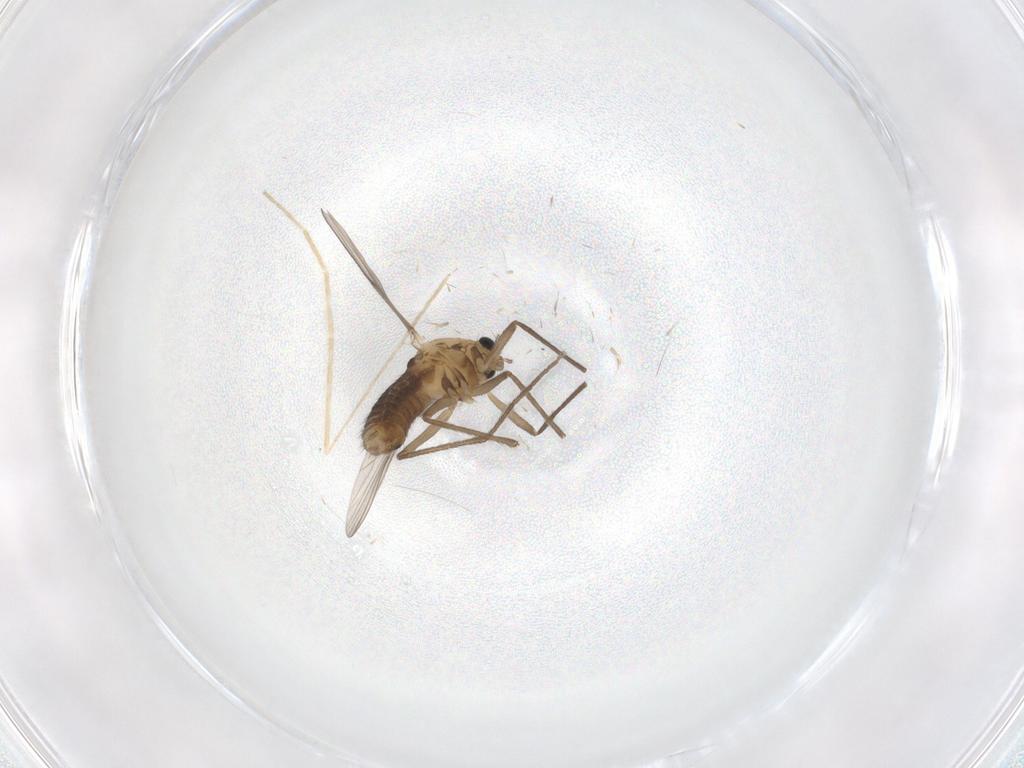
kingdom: Animalia
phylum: Arthropoda
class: Insecta
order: Diptera
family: Chironomidae
